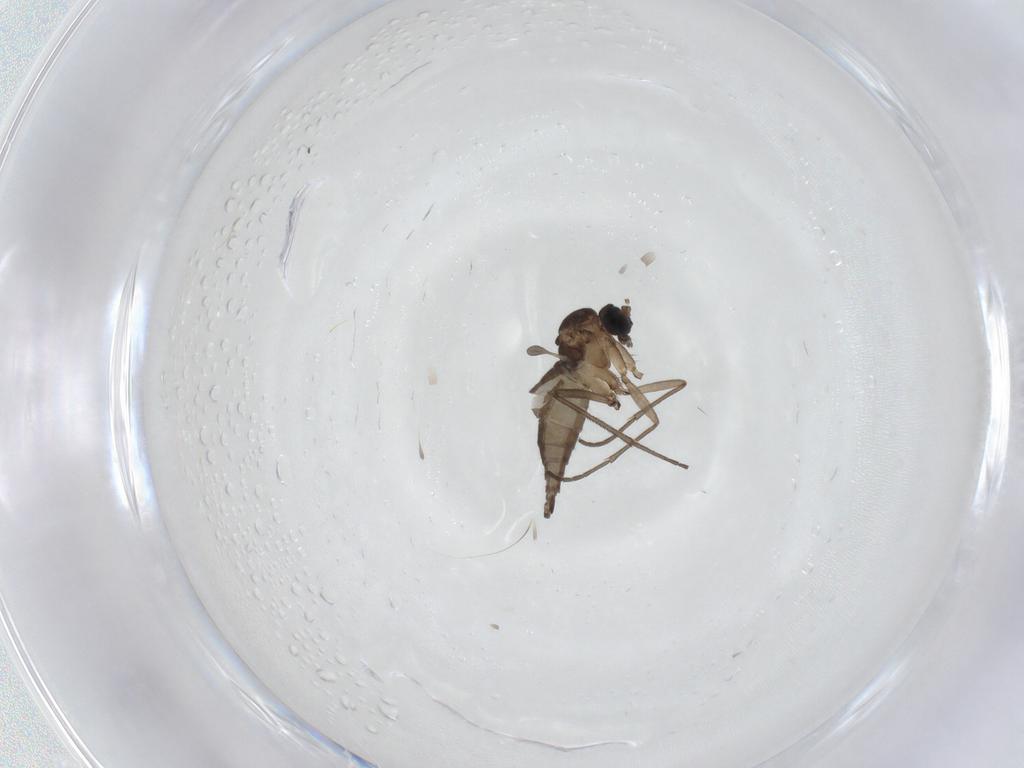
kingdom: Animalia
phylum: Arthropoda
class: Insecta
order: Diptera
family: Sciaridae
